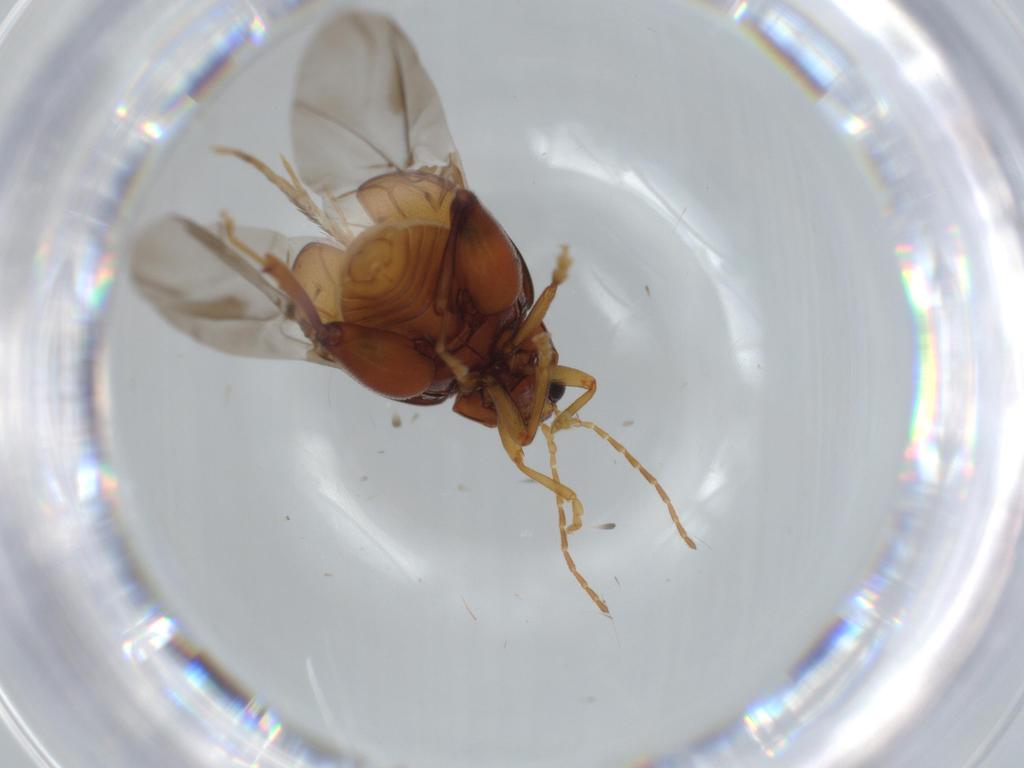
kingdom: Animalia
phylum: Arthropoda
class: Insecta
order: Coleoptera
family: Chrysomelidae
